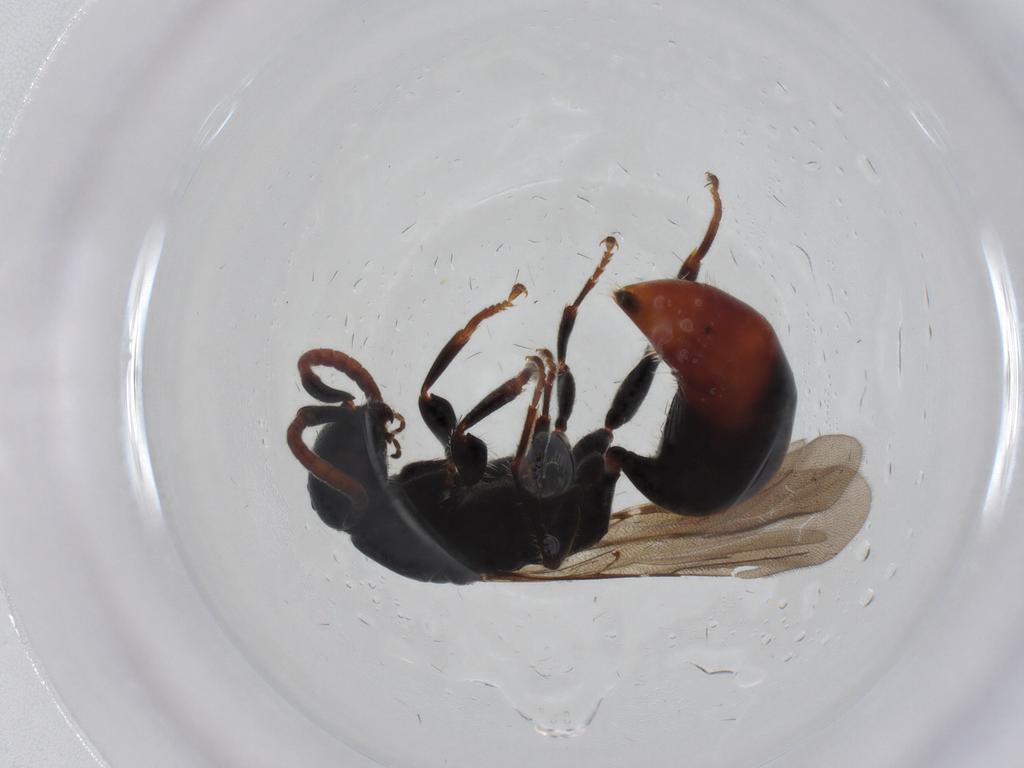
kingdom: Animalia
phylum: Arthropoda
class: Insecta
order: Hymenoptera
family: Bethylidae
